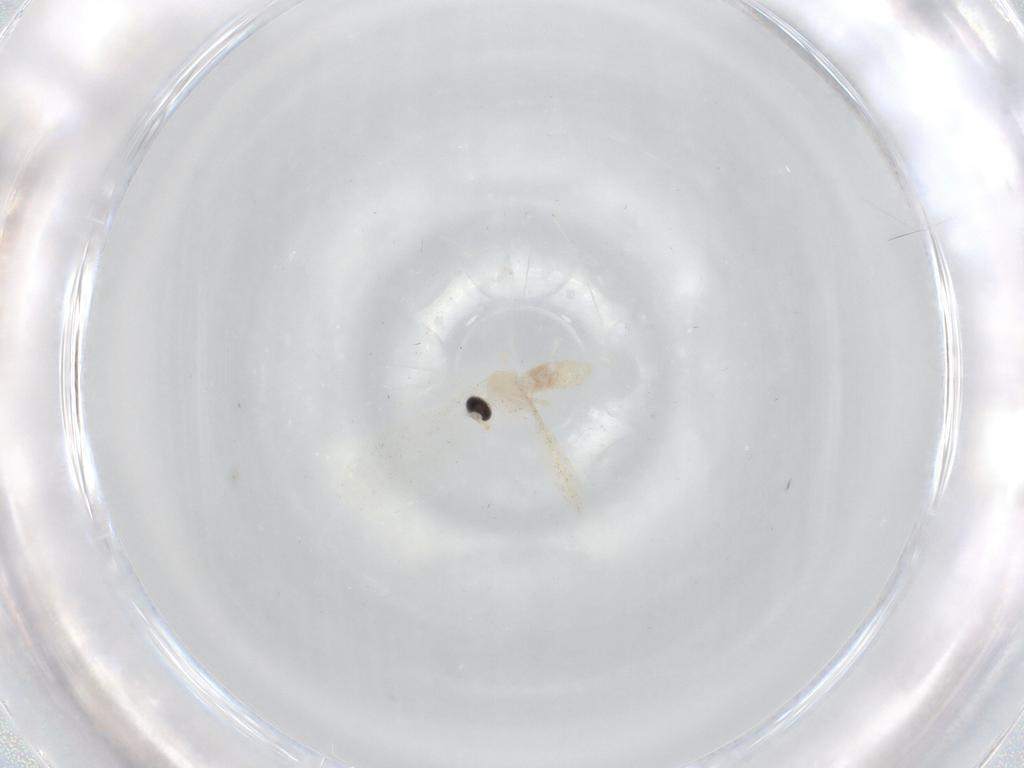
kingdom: Animalia
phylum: Arthropoda
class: Insecta
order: Diptera
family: Cecidomyiidae
